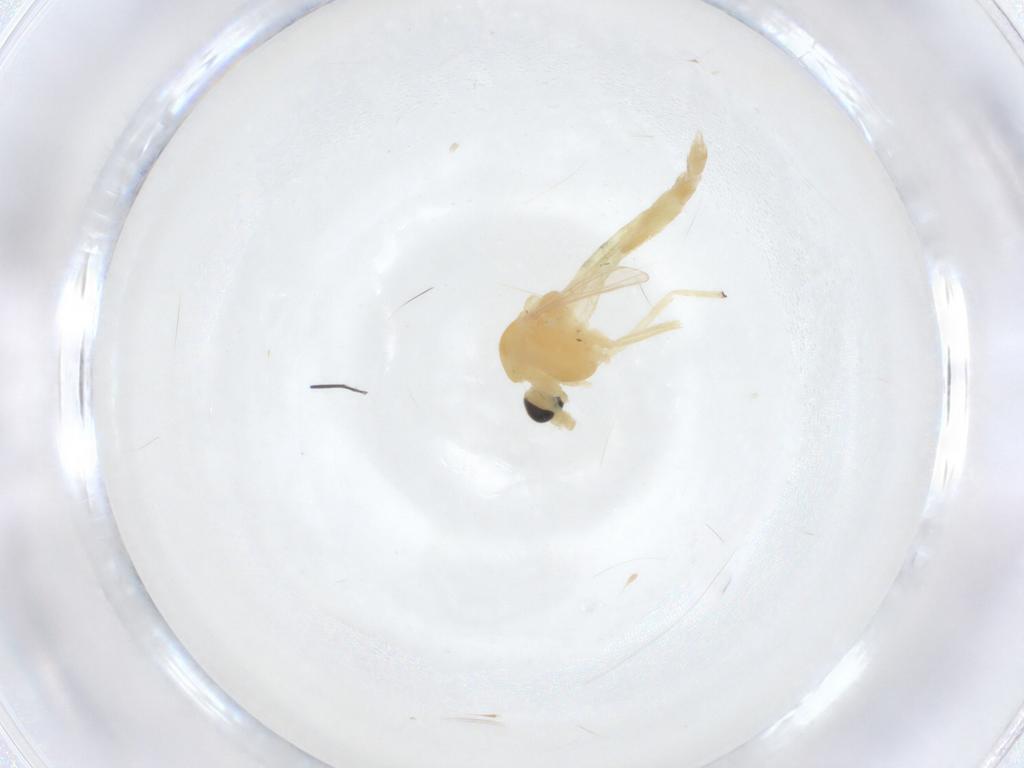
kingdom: Animalia
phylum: Arthropoda
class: Insecta
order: Diptera
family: Chironomidae
